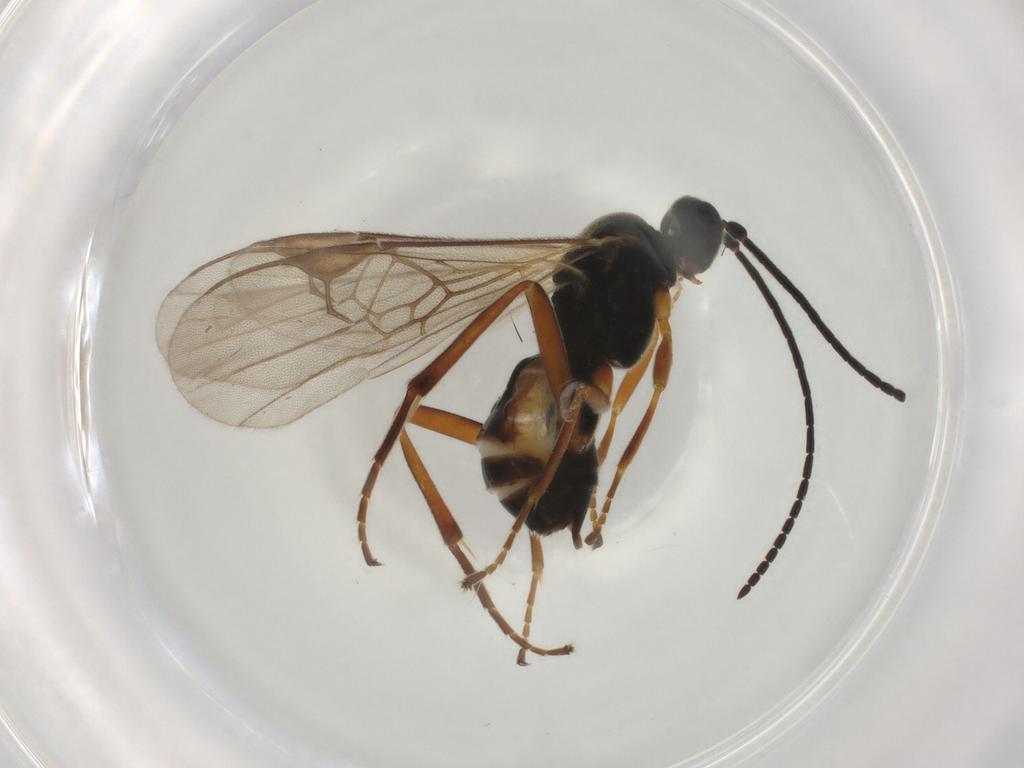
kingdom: Animalia
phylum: Arthropoda
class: Insecta
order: Hymenoptera
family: Braconidae
